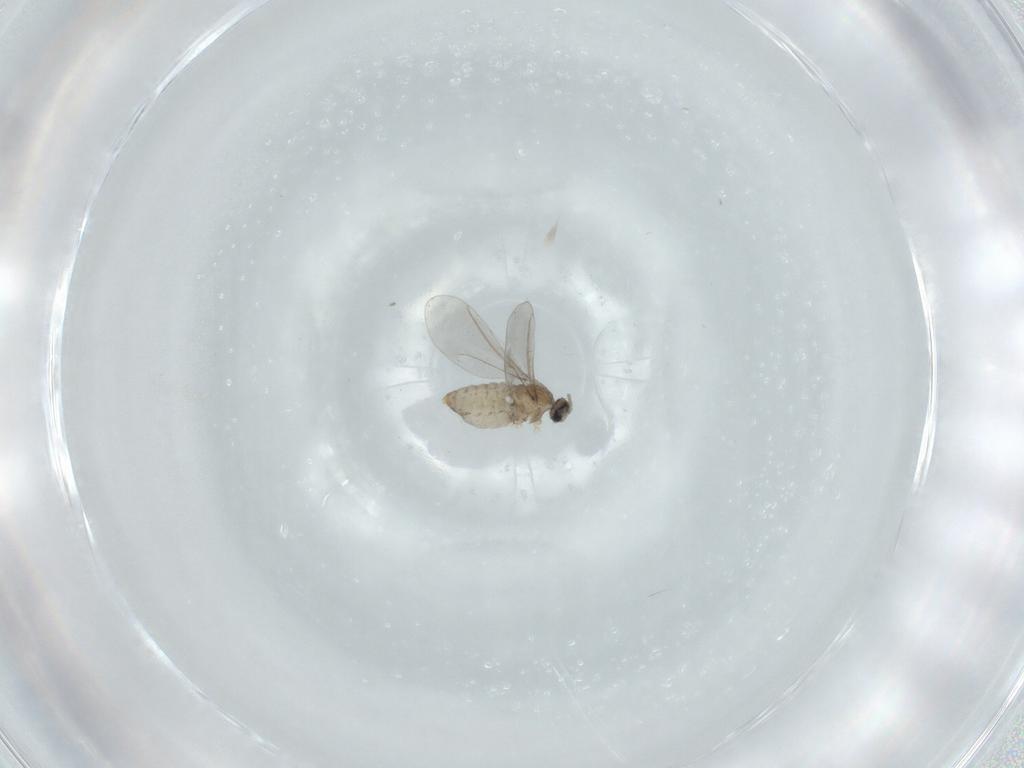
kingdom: Animalia
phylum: Arthropoda
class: Insecta
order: Diptera
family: Cecidomyiidae
